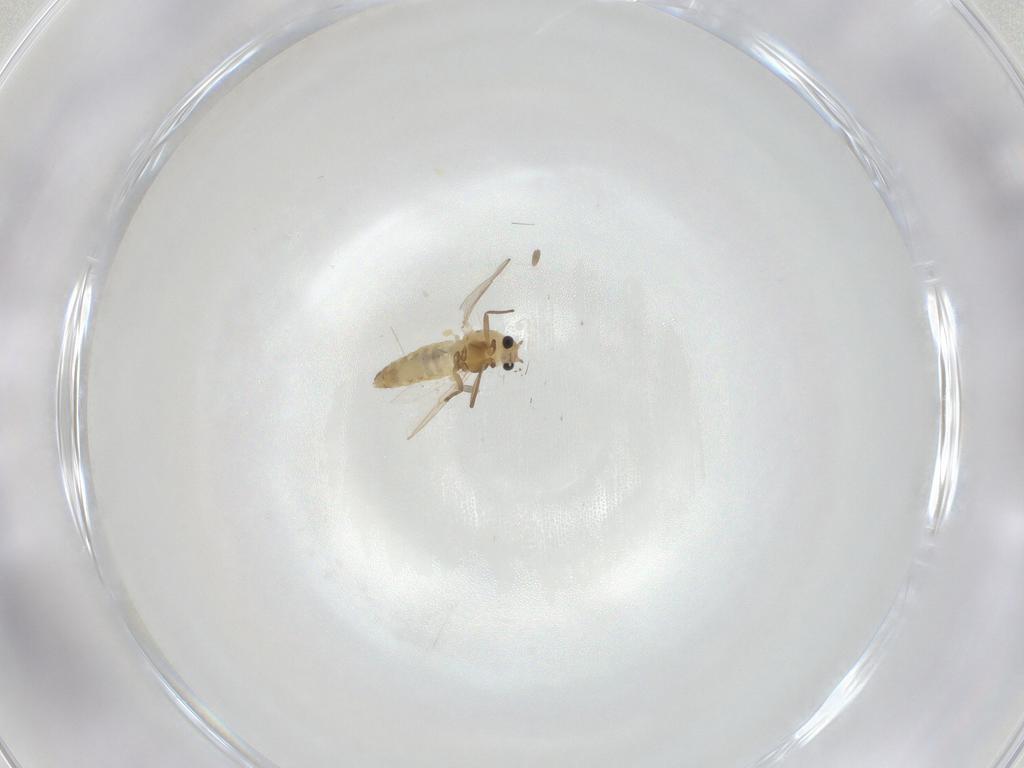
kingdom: Animalia
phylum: Arthropoda
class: Insecta
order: Diptera
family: Chironomidae
